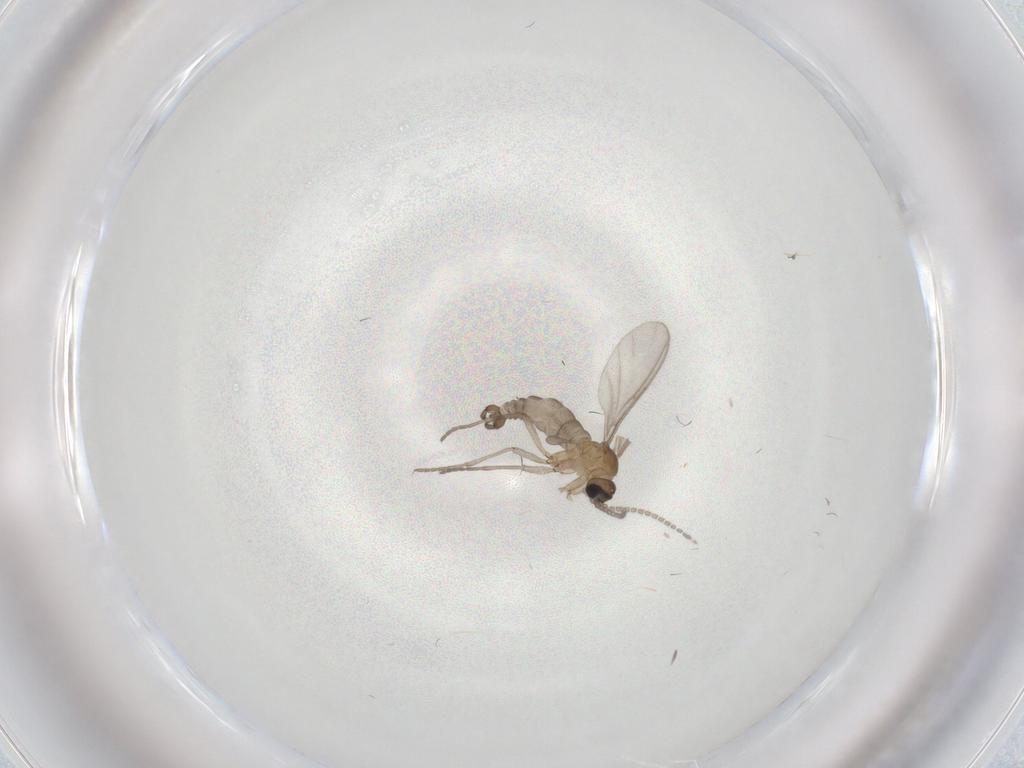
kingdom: Animalia
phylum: Arthropoda
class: Insecta
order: Diptera
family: Sciaridae
